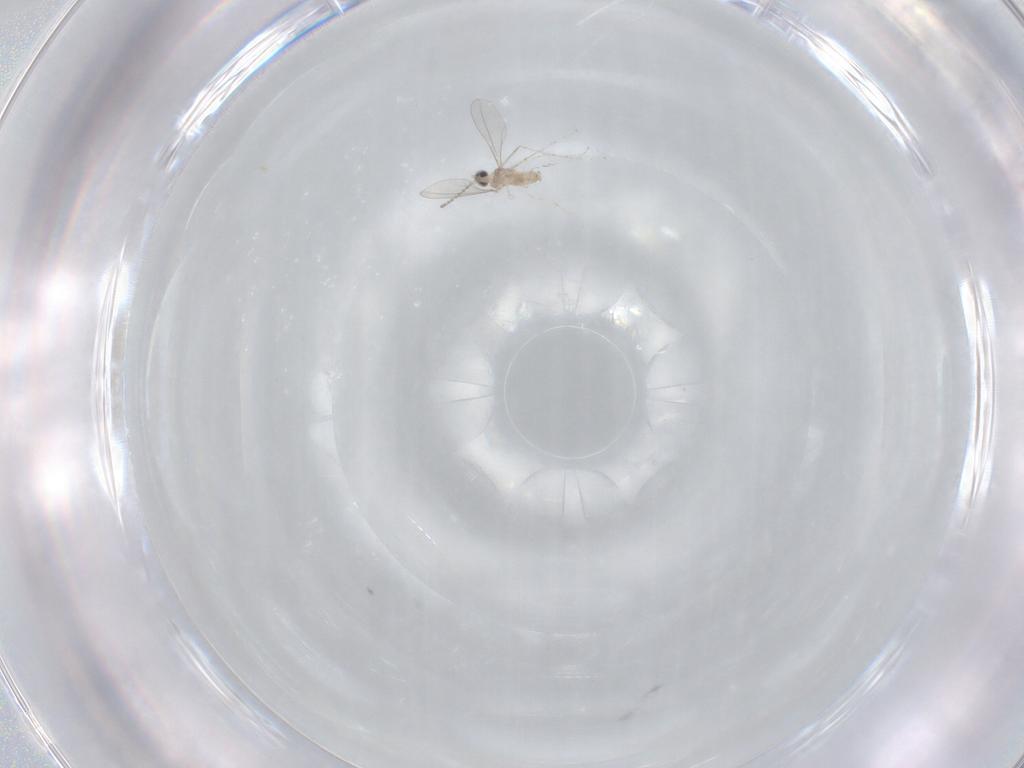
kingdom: Animalia
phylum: Arthropoda
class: Insecta
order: Diptera
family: Cecidomyiidae
